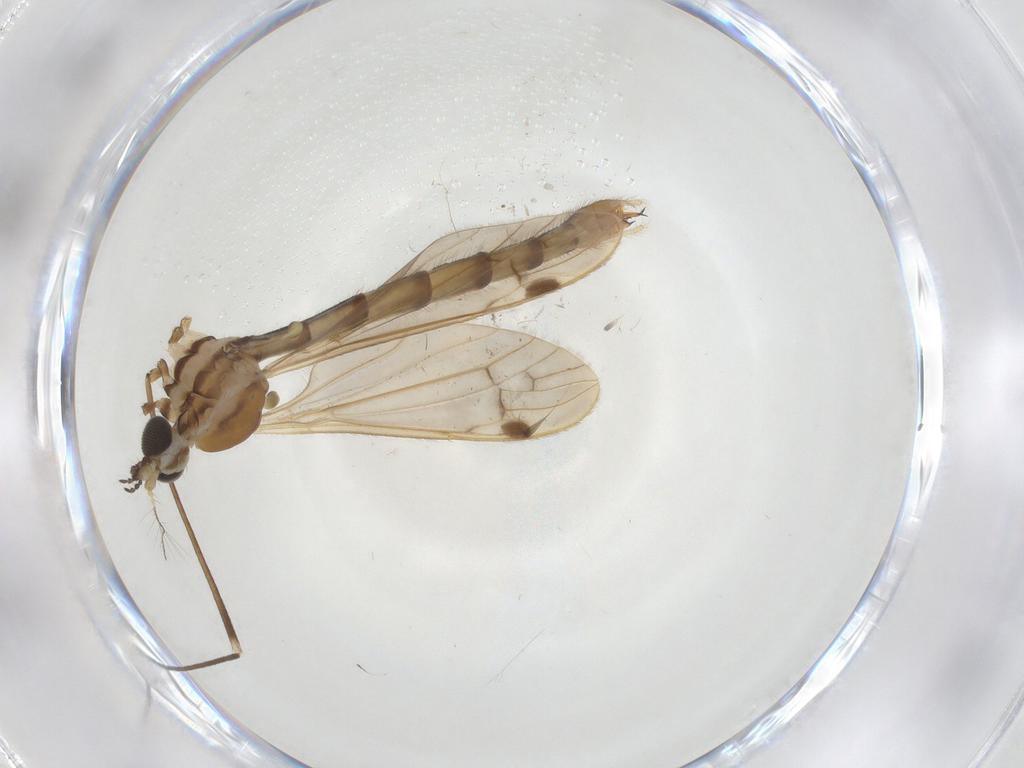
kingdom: Animalia
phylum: Arthropoda
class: Insecta
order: Diptera
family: Limoniidae
